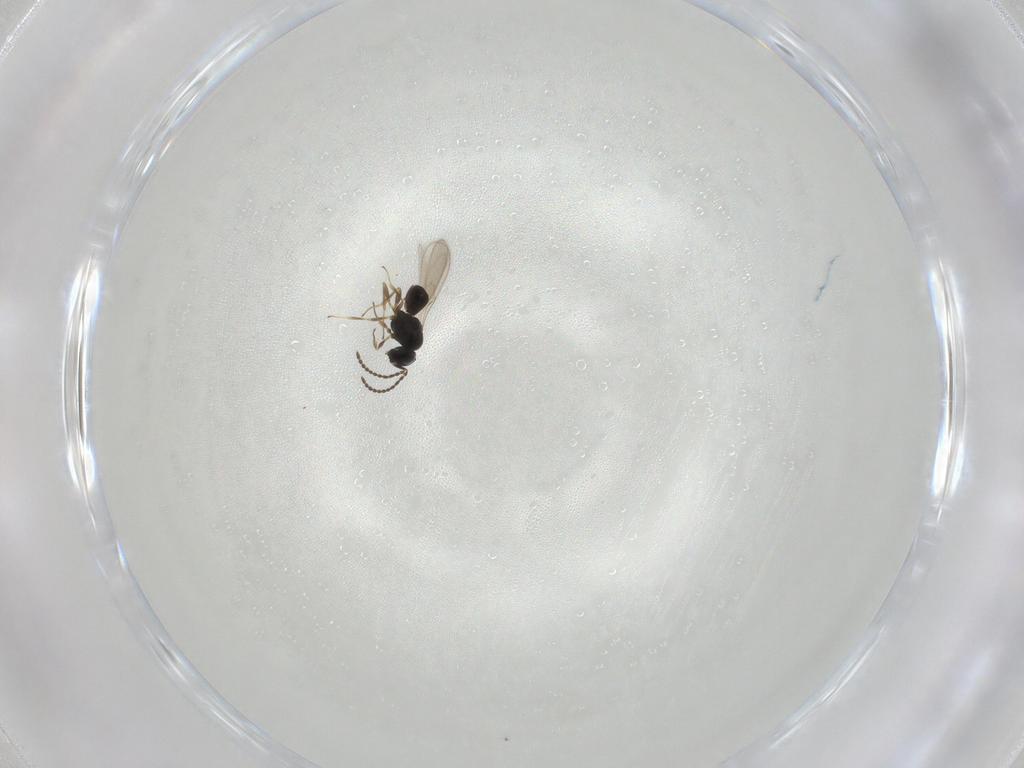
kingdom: Animalia
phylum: Arthropoda
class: Insecta
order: Hymenoptera
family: Scelionidae
